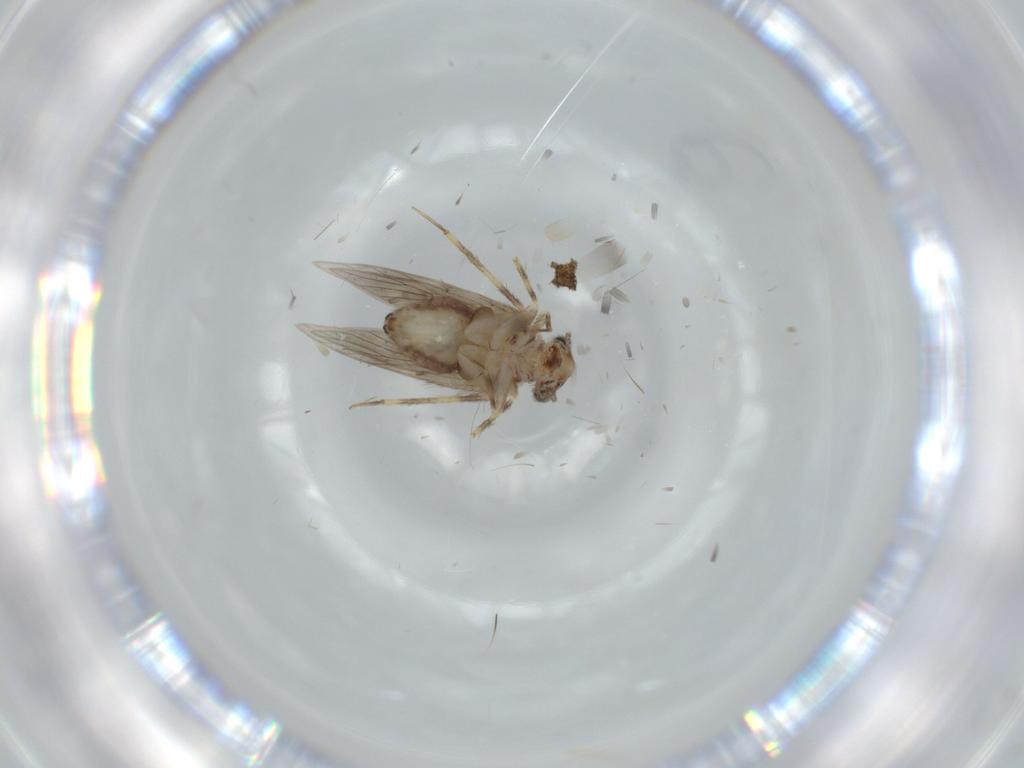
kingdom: Animalia
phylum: Arthropoda
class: Insecta
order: Psocodea
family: Lepidopsocidae
